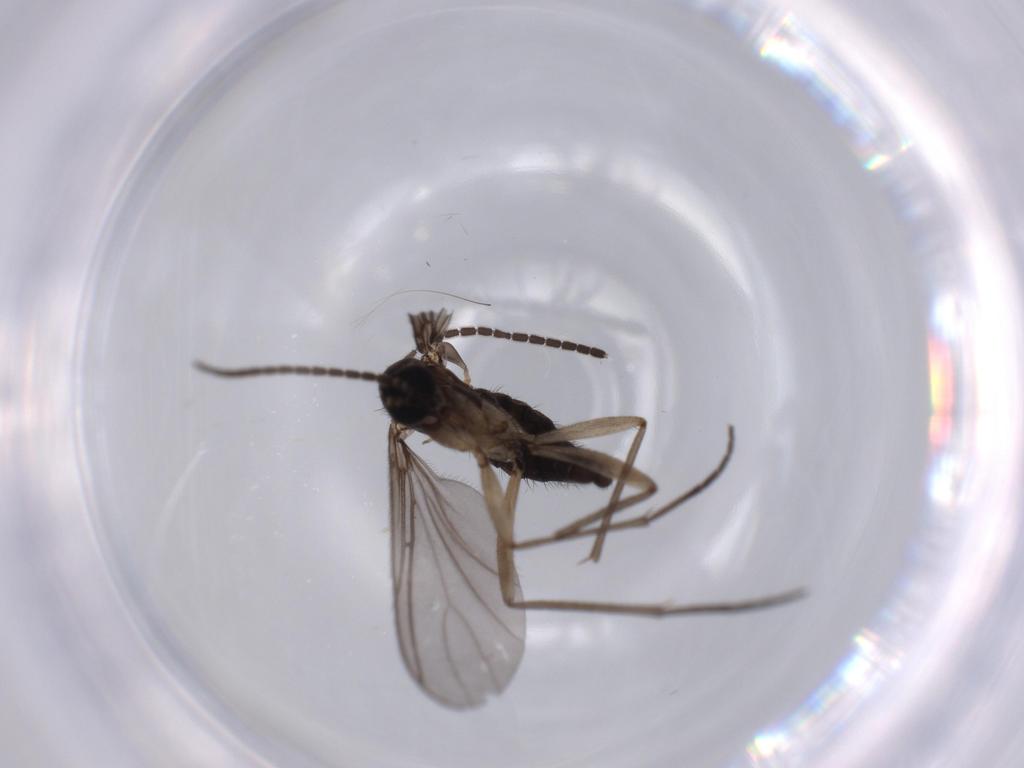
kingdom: Animalia
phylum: Arthropoda
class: Insecta
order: Diptera
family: Sciaridae
